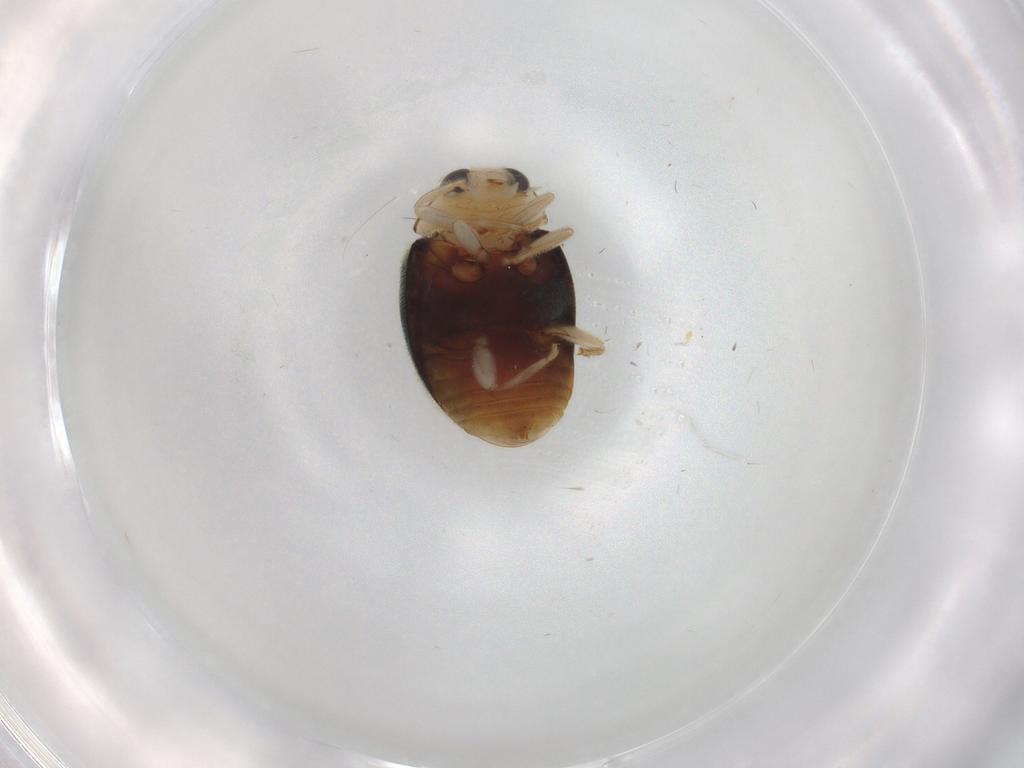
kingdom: Animalia
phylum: Arthropoda
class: Insecta
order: Coleoptera
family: Coccinellidae
